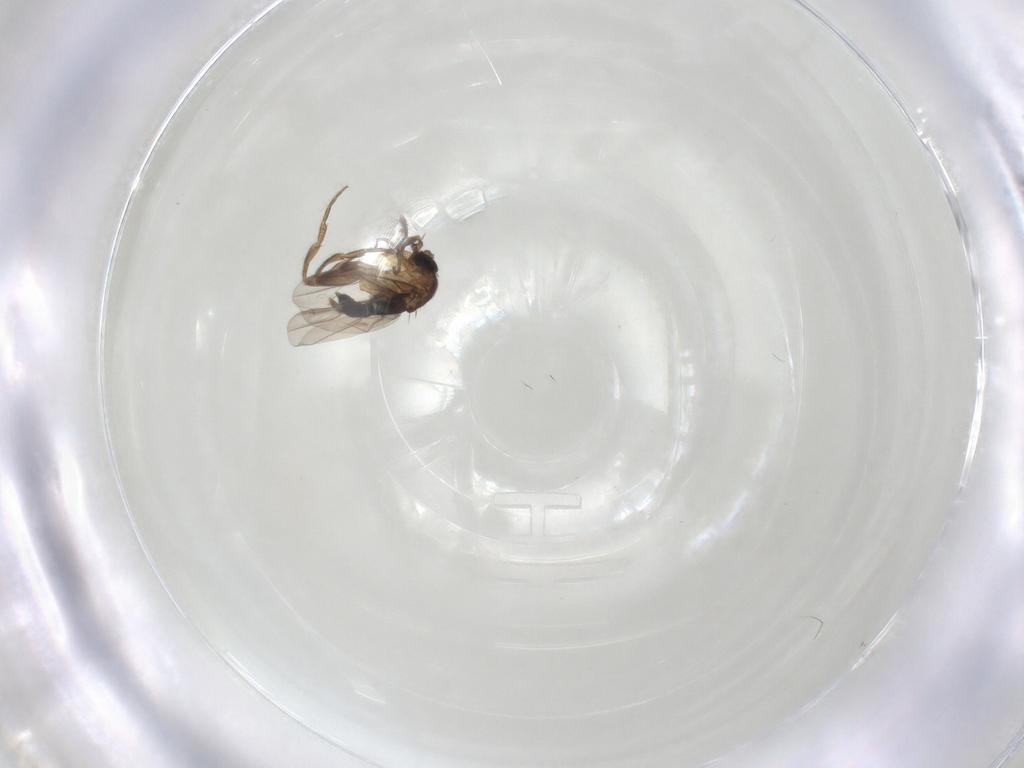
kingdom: Animalia
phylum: Arthropoda
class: Insecta
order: Diptera
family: Phoridae
